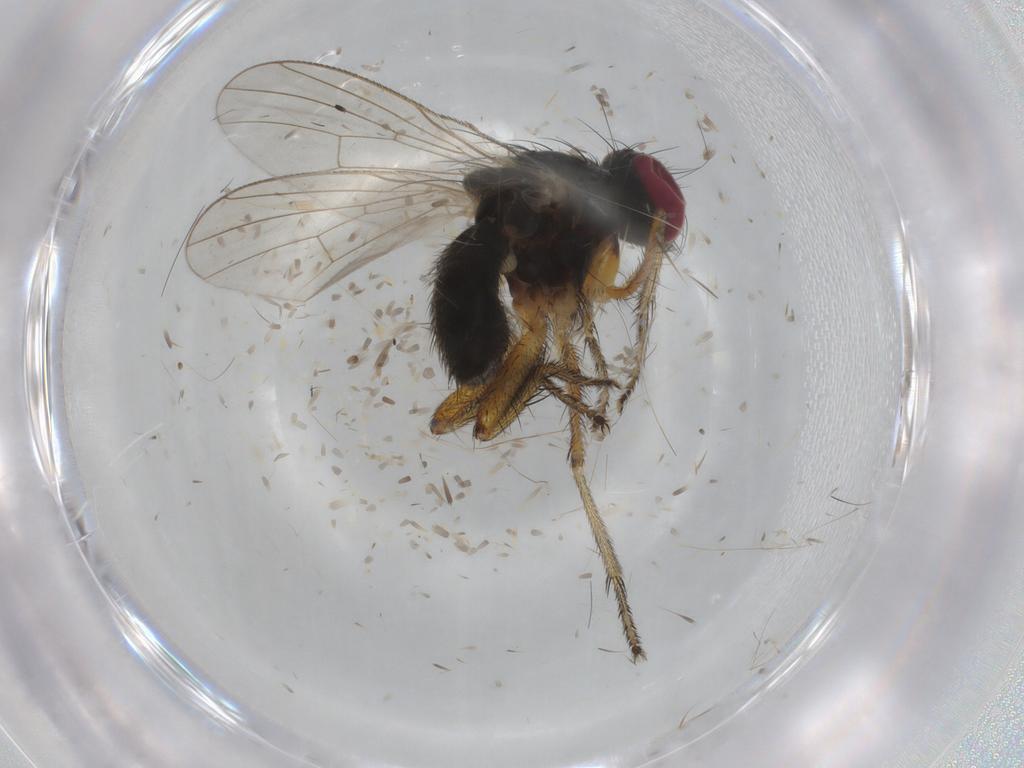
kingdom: Animalia
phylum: Arthropoda
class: Insecta
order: Diptera
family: Muscidae
